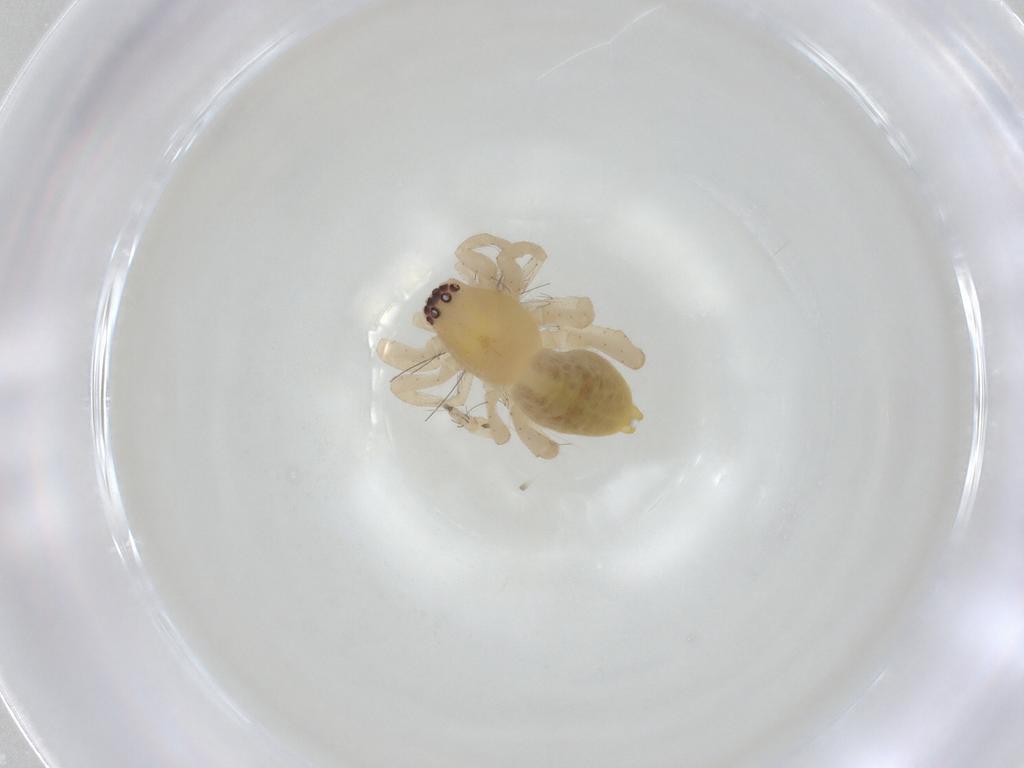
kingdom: Animalia
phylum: Arthropoda
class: Arachnida
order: Araneae
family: Clubionidae
